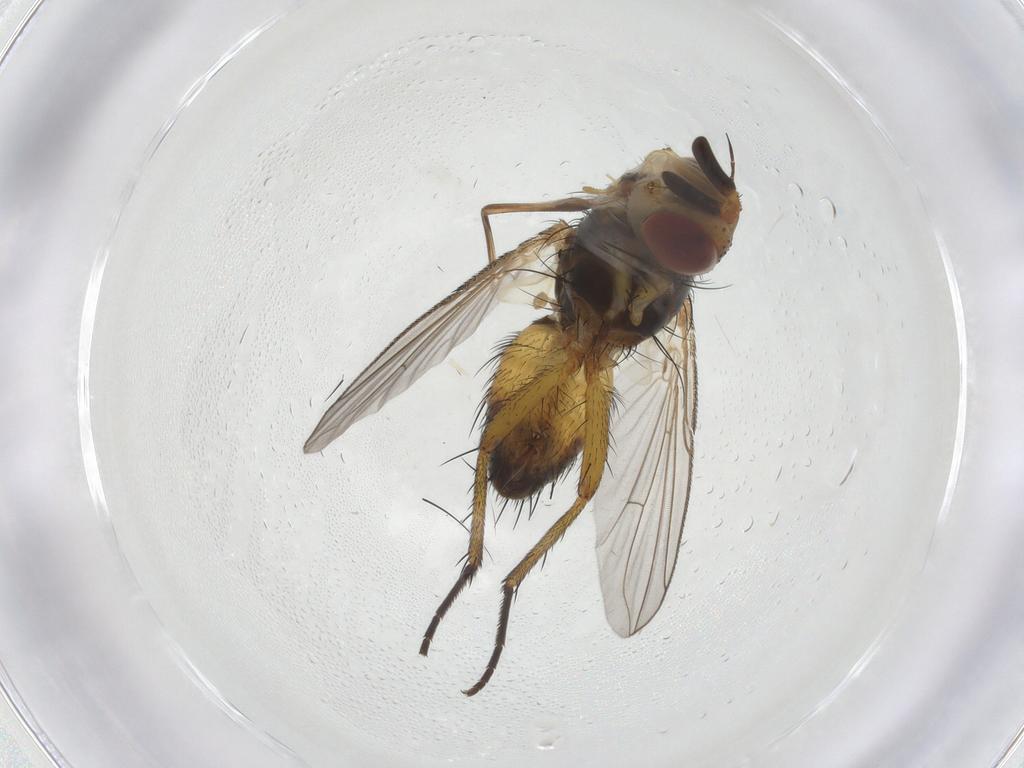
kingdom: Animalia
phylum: Arthropoda
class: Insecta
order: Diptera
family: Tachinidae
